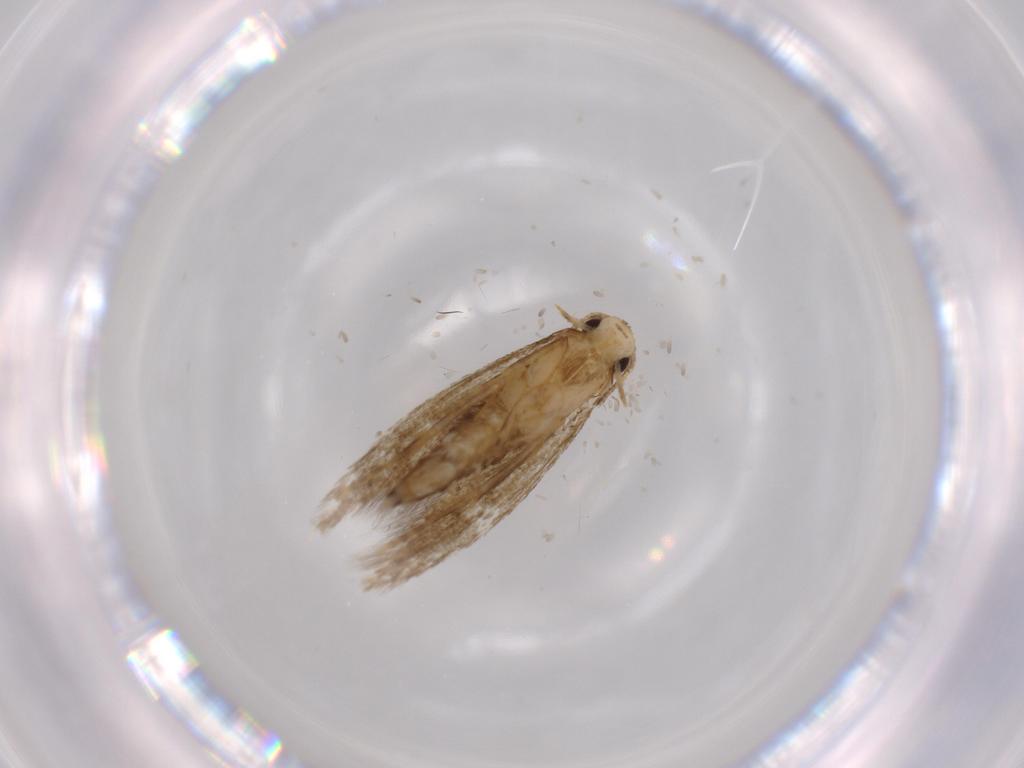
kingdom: Animalia
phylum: Arthropoda
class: Insecta
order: Lepidoptera
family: Tineidae
